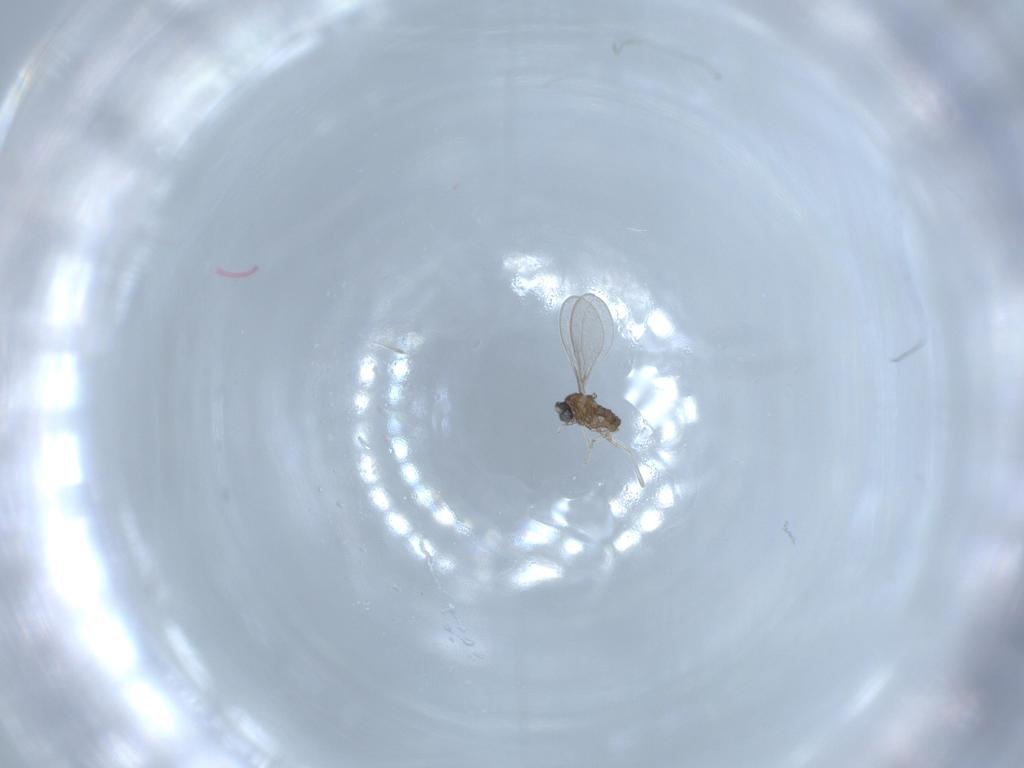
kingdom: Animalia
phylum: Arthropoda
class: Insecta
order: Diptera
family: Cecidomyiidae
